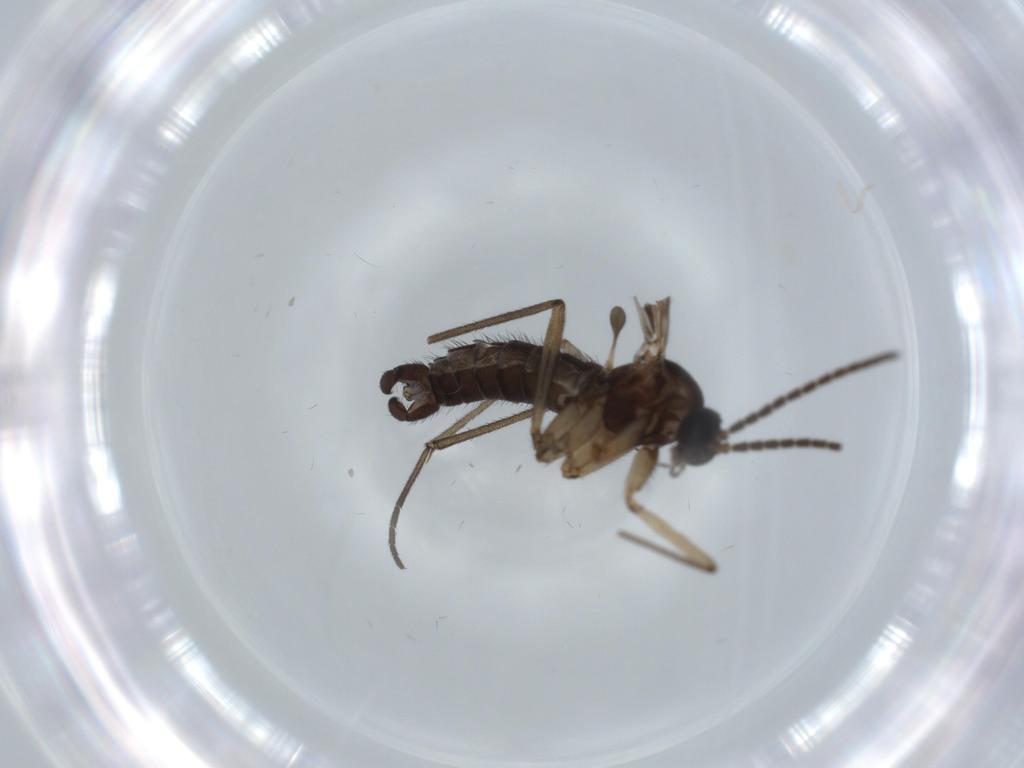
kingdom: Animalia
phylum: Arthropoda
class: Insecta
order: Diptera
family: Sciaridae
